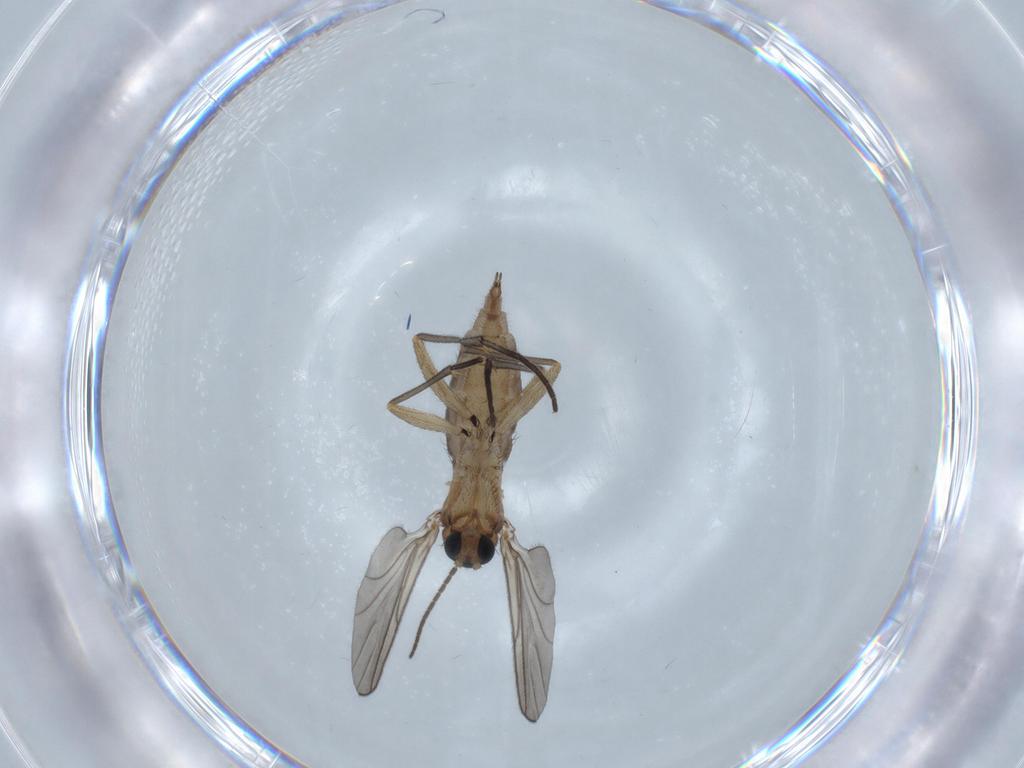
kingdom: Animalia
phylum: Arthropoda
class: Insecta
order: Diptera
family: Sciaridae
